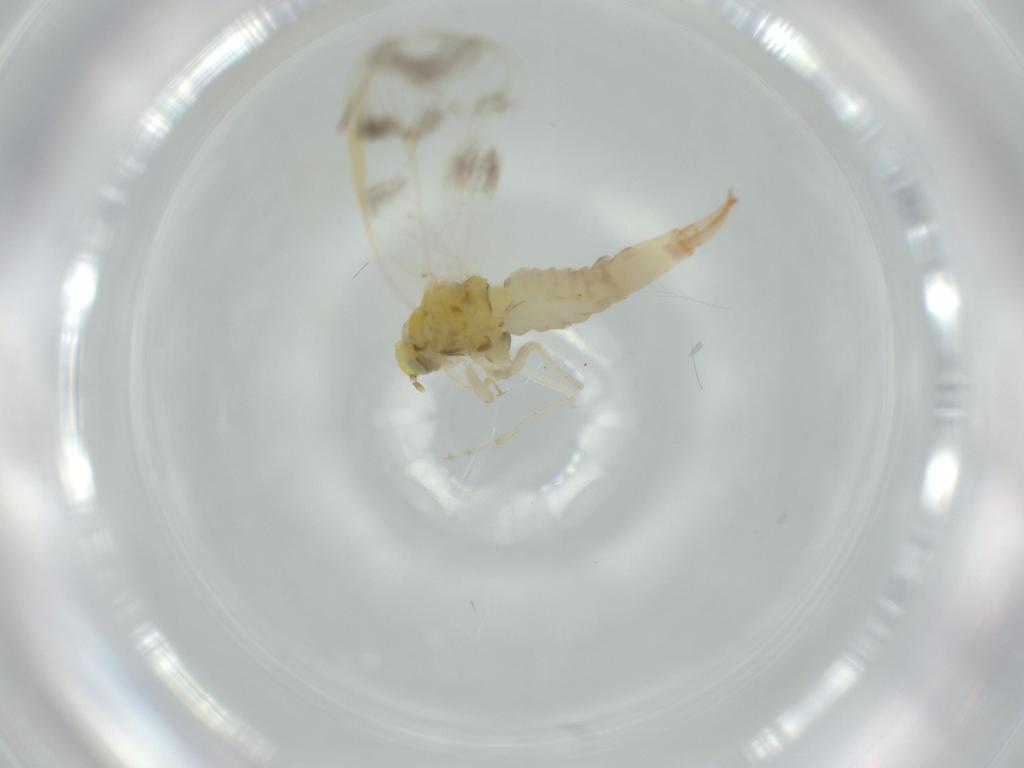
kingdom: Animalia
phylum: Arthropoda
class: Insecta
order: Hemiptera
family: Aleyrodidae
